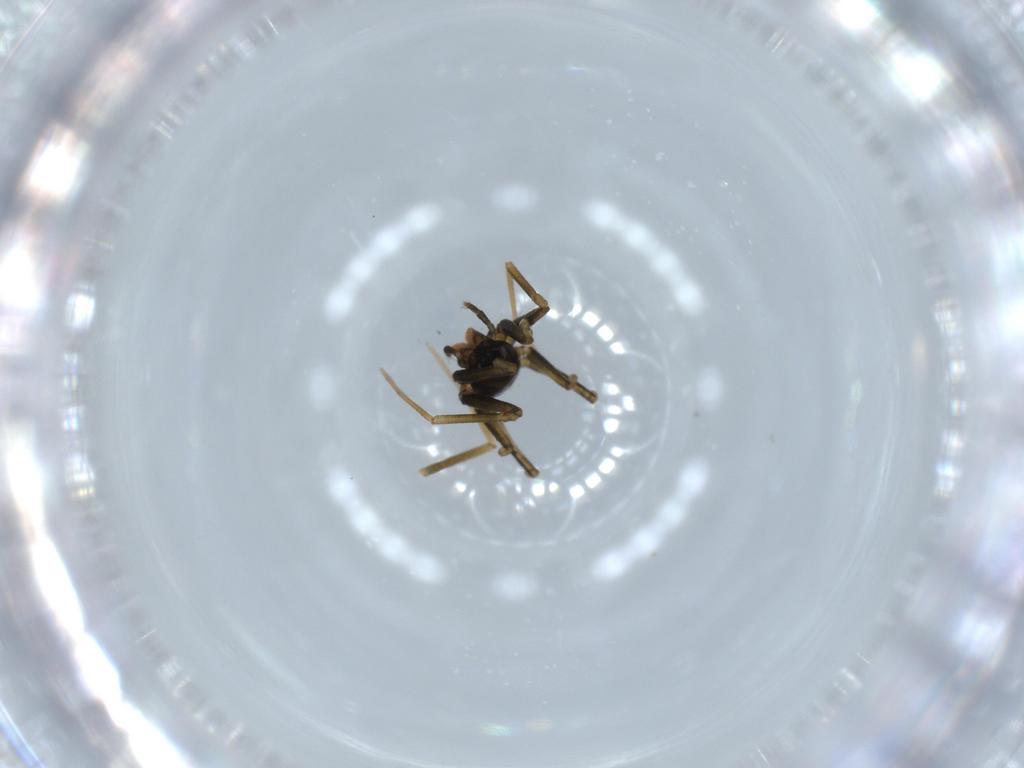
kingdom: Animalia
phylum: Arthropoda
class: Arachnida
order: Araneae
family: Linyphiidae
